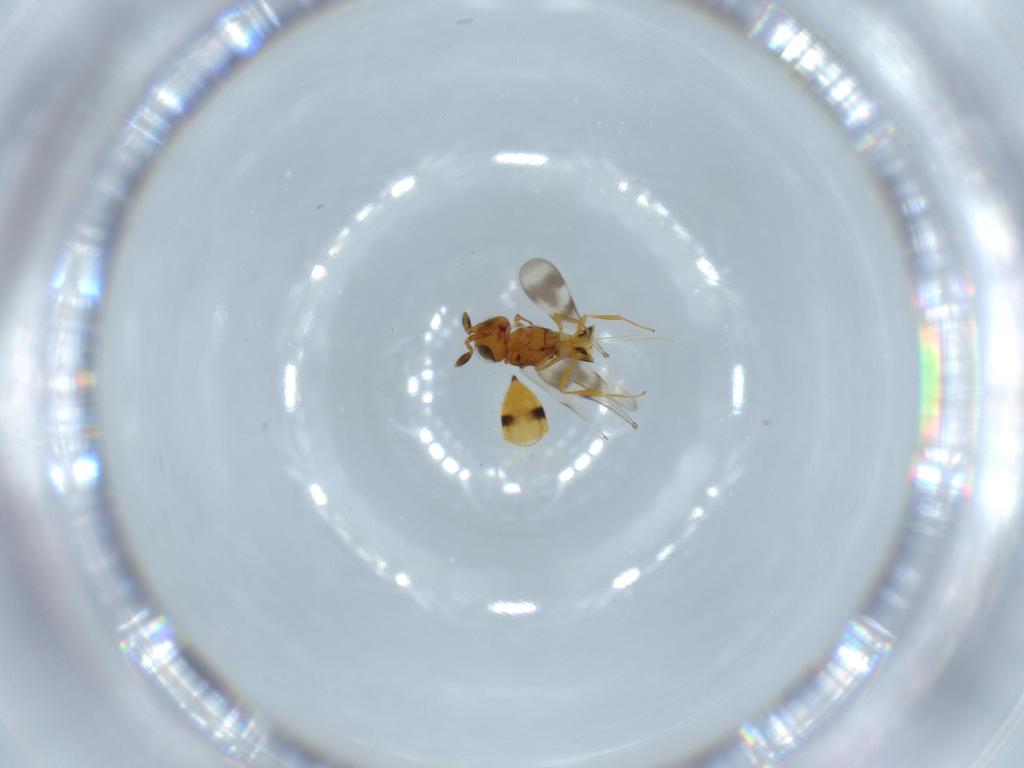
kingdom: Animalia
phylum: Arthropoda
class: Insecta
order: Hymenoptera
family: Scelionidae
